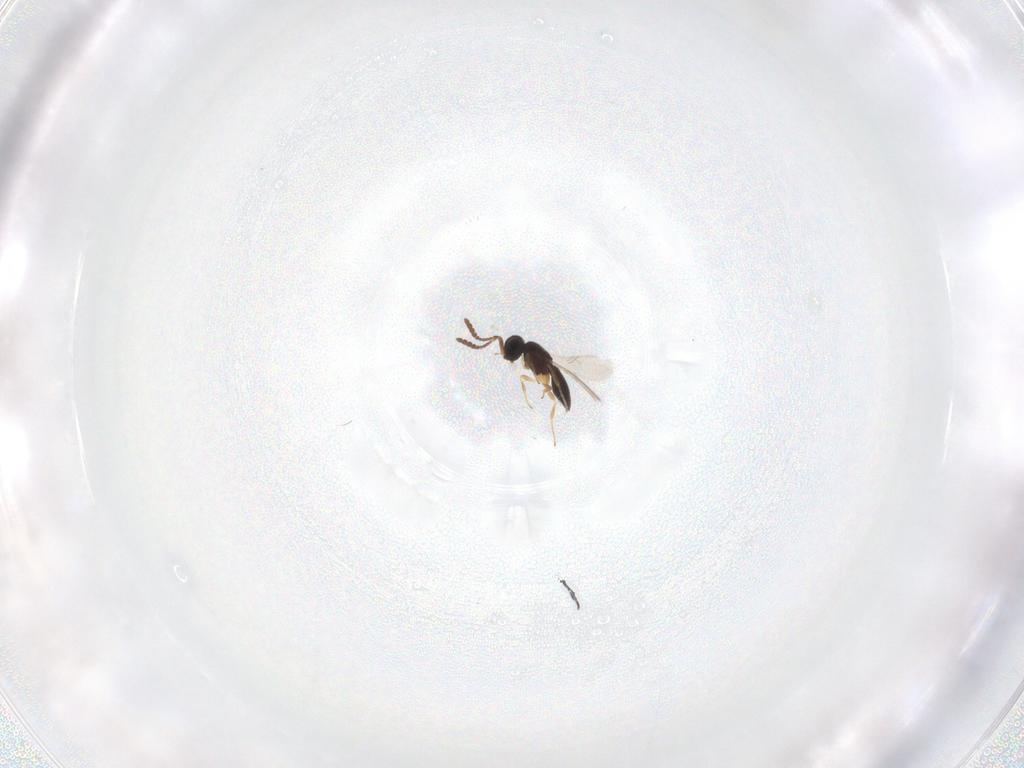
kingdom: Animalia
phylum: Arthropoda
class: Insecta
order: Hymenoptera
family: Scelionidae
